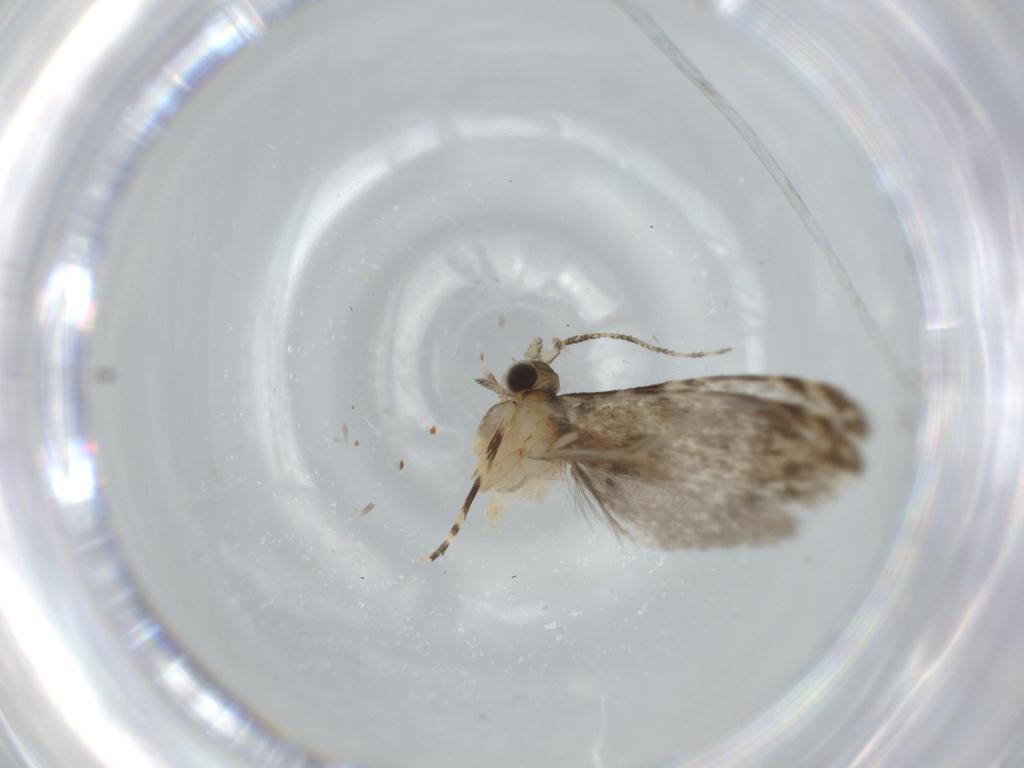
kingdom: Animalia
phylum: Arthropoda
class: Insecta
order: Lepidoptera
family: Tineidae
